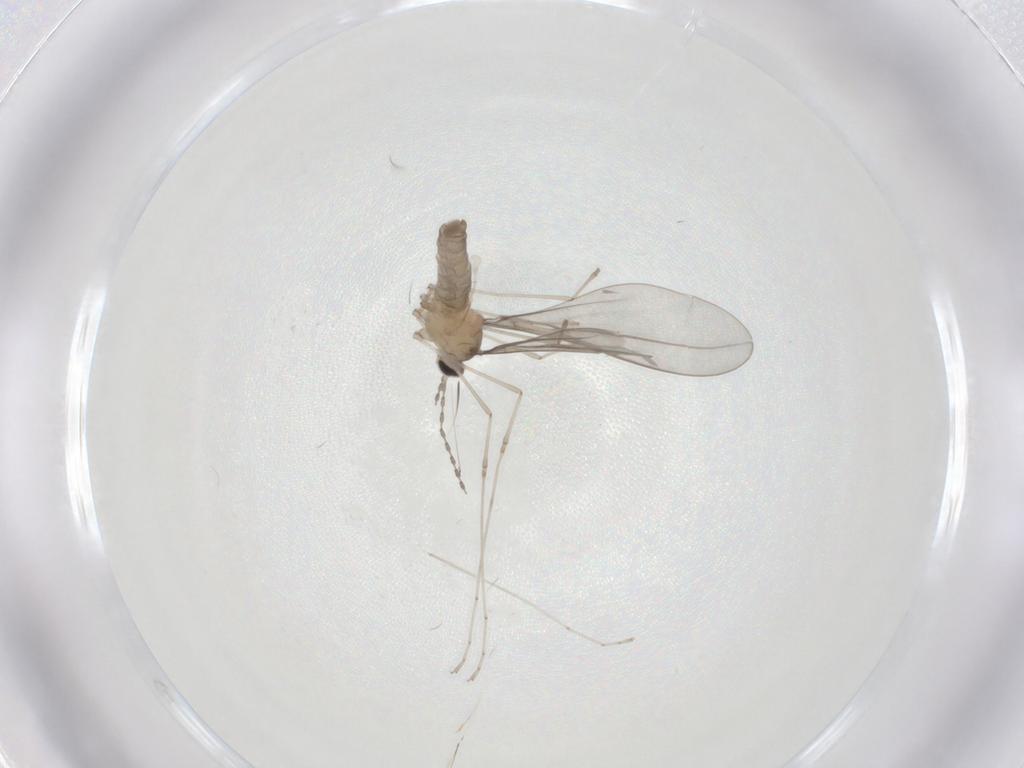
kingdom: Animalia
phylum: Arthropoda
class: Insecta
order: Diptera
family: Cecidomyiidae
